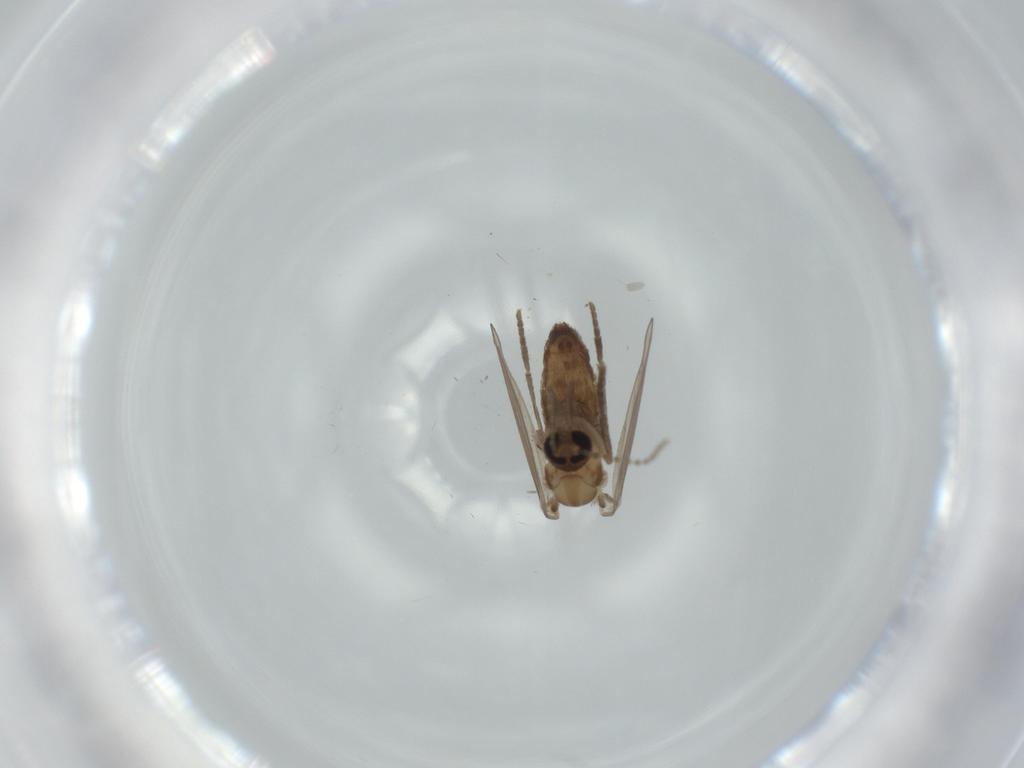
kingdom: Animalia
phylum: Arthropoda
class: Insecta
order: Diptera
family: Psychodidae
